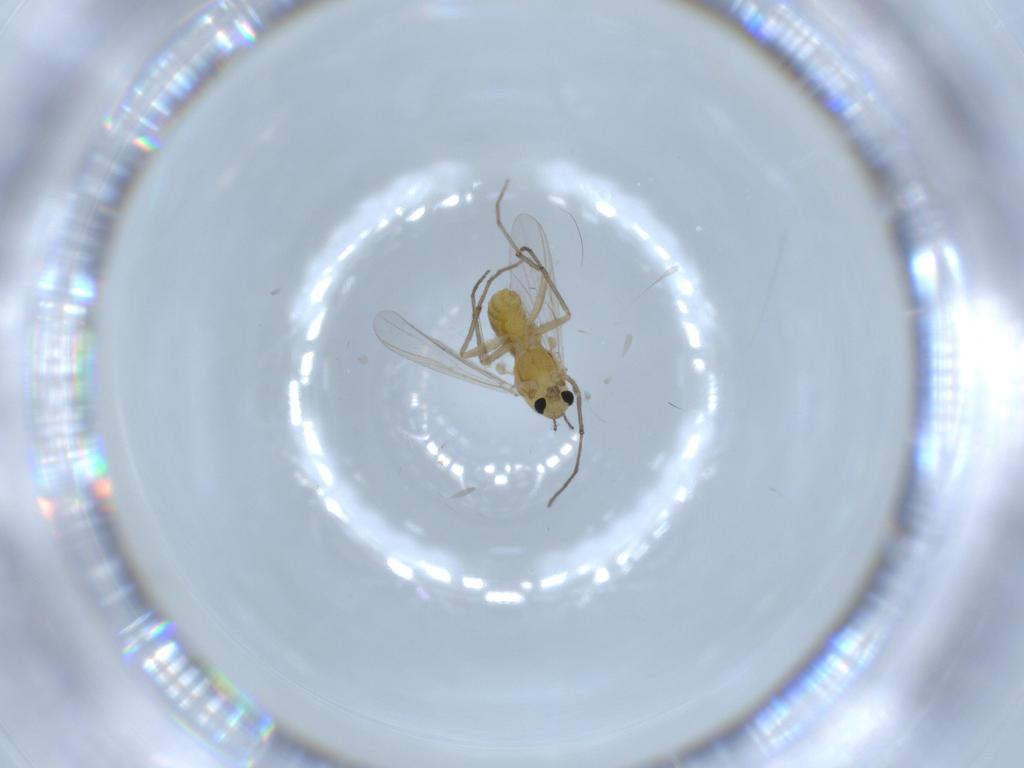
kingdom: Animalia
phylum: Arthropoda
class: Insecta
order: Diptera
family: Chironomidae
